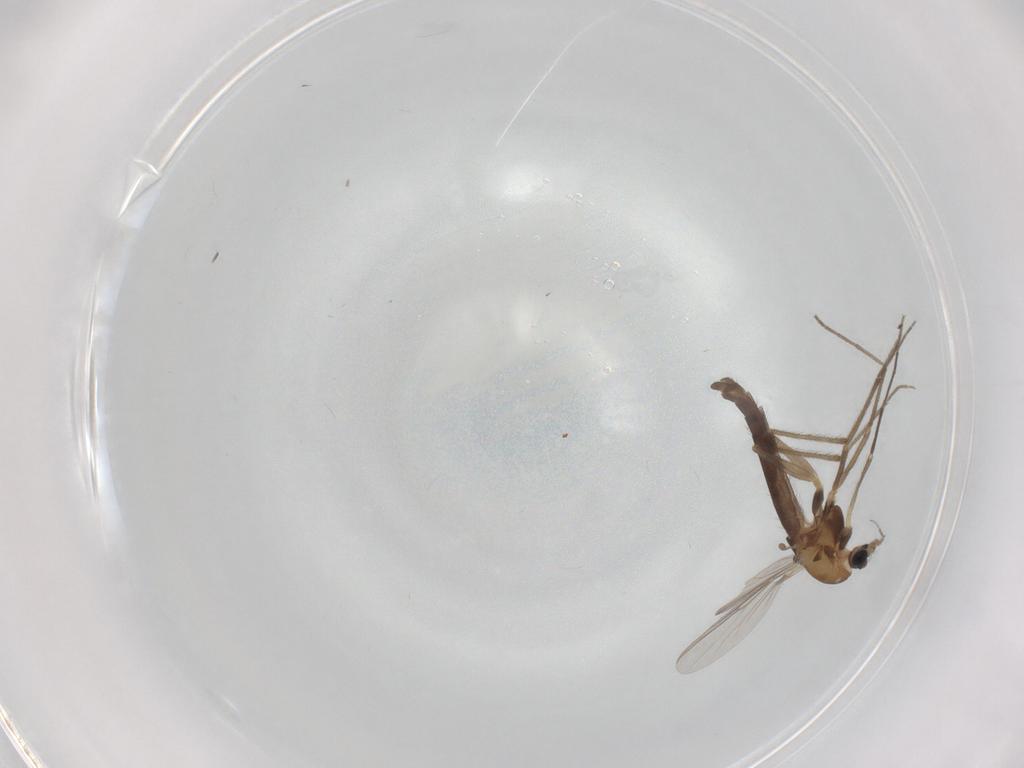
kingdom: Animalia
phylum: Arthropoda
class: Insecta
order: Diptera
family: Chironomidae
